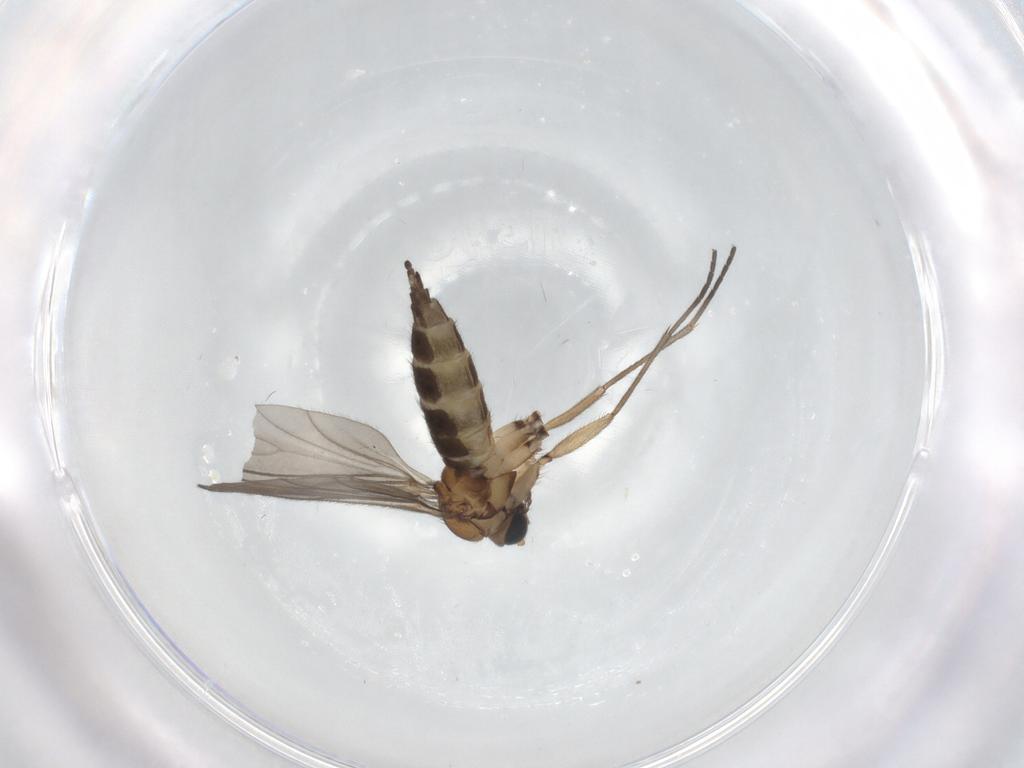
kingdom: Animalia
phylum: Arthropoda
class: Insecta
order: Diptera
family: Sciaridae
